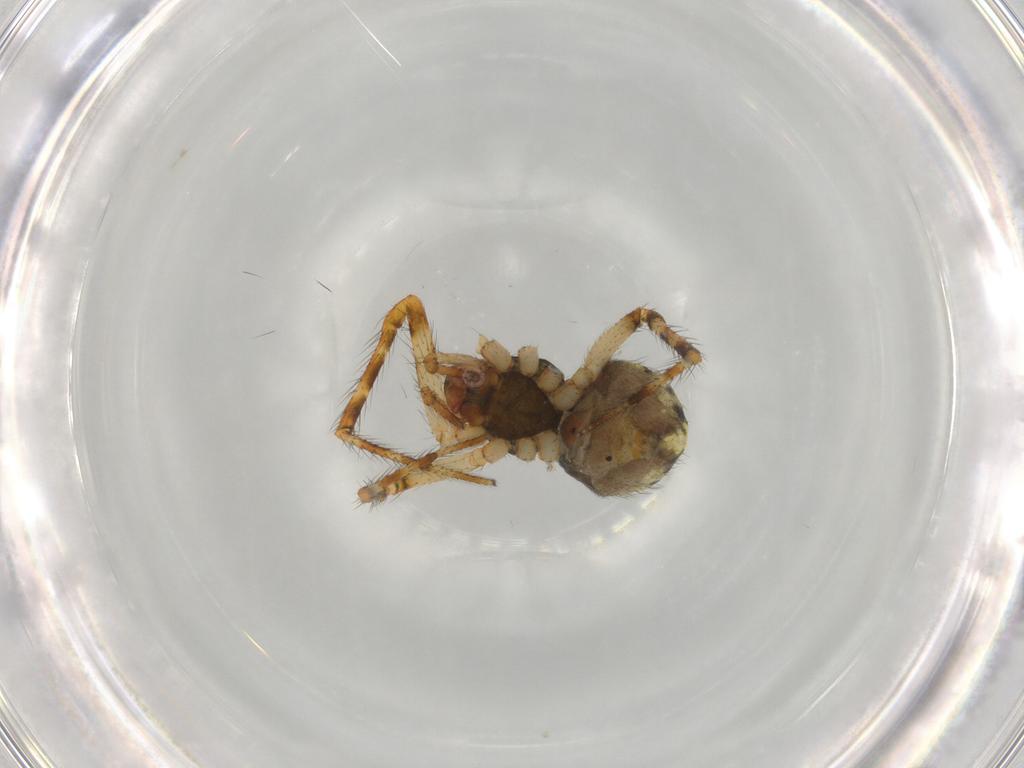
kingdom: Animalia
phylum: Arthropoda
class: Arachnida
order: Araneae
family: Theridiidae
